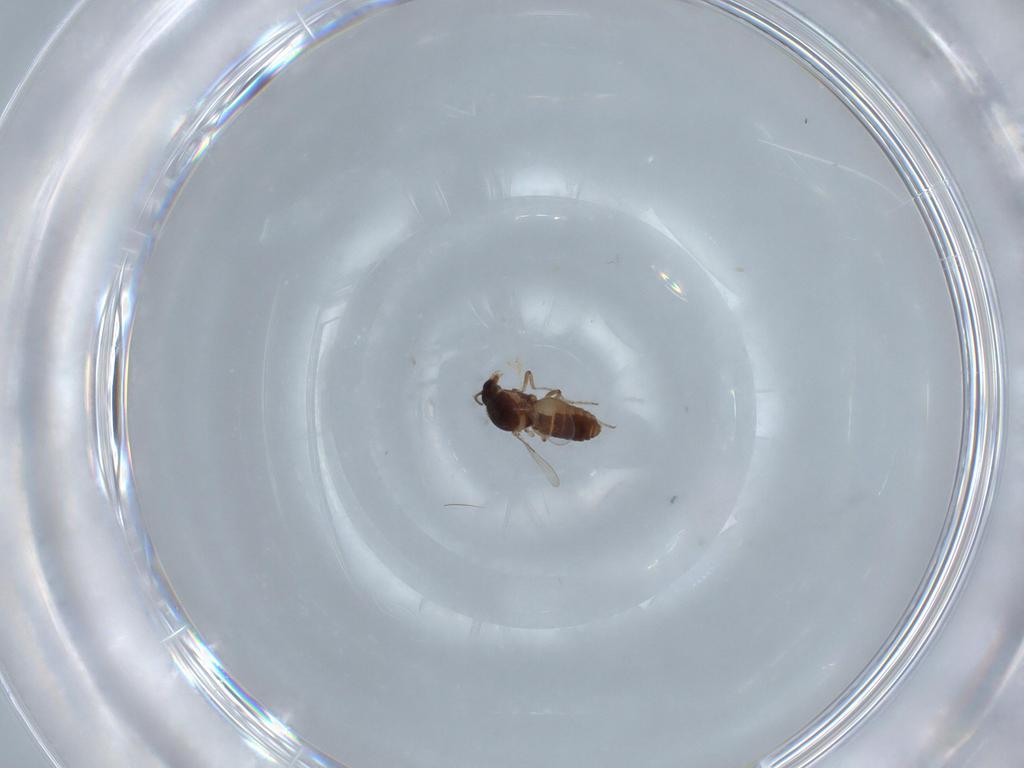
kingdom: Animalia
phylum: Arthropoda
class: Insecta
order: Diptera
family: Ceratopogonidae
